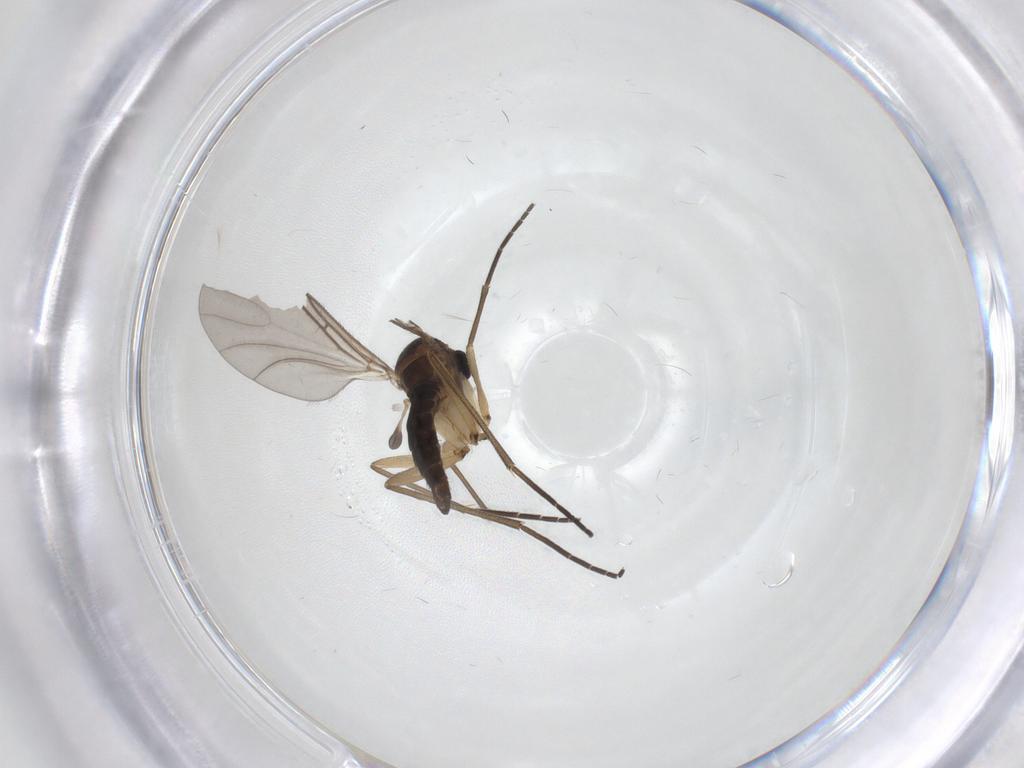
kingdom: Animalia
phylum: Arthropoda
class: Insecta
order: Diptera
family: Sciaridae
